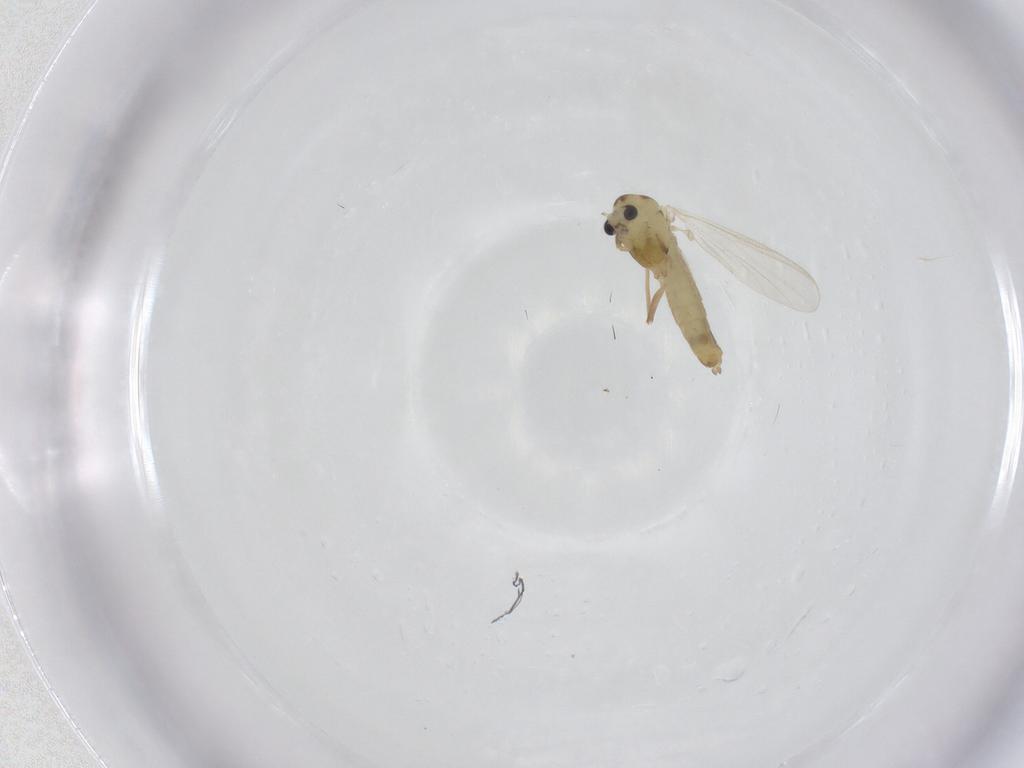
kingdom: Animalia
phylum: Arthropoda
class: Insecta
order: Diptera
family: Chironomidae
